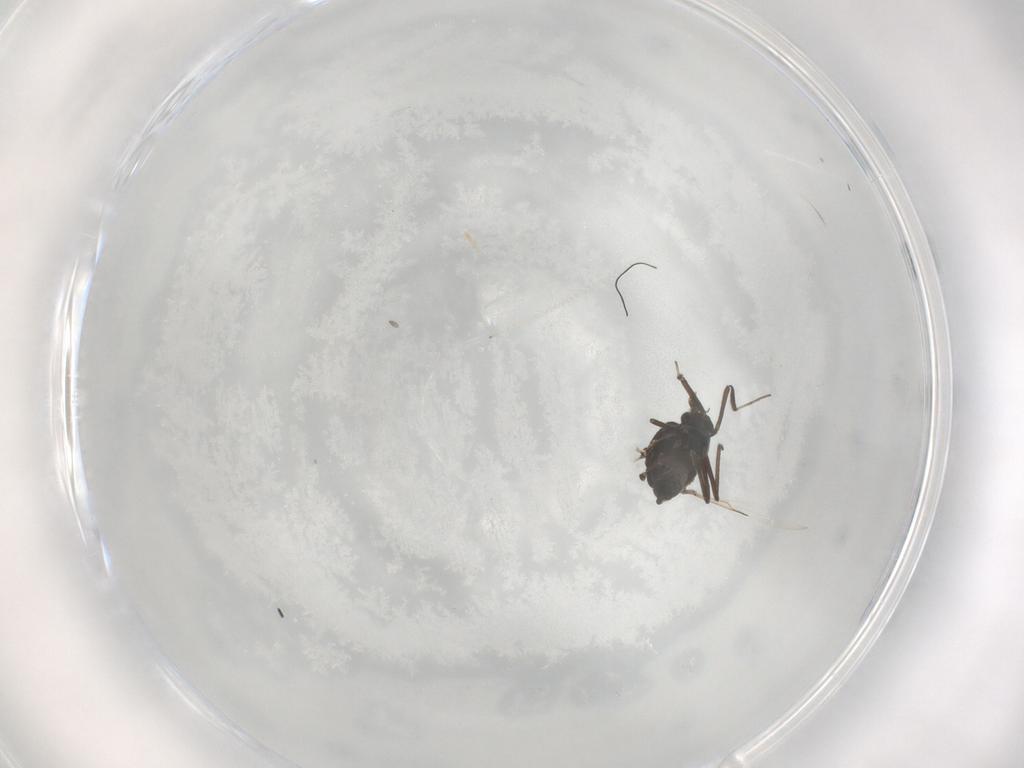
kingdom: Animalia
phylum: Arthropoda
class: Insecta
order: Diptera
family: Ceratopogonidae
